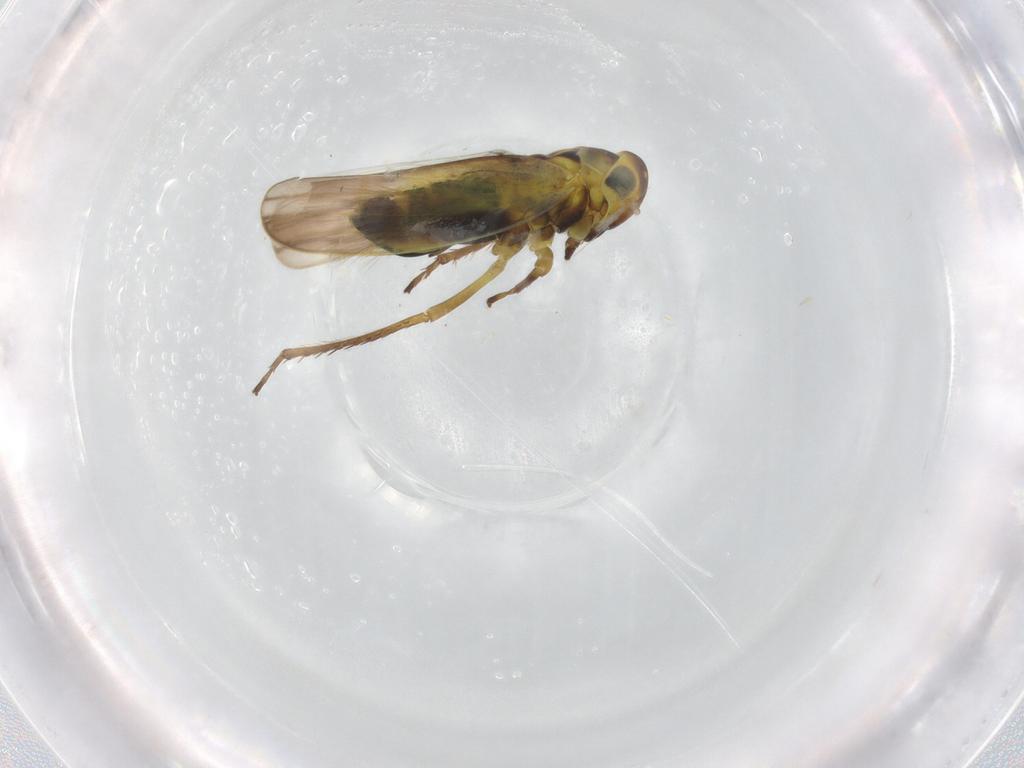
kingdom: Animalia
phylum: Arthropoda
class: Insecta
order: Hemiptera
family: Cicadellidae
